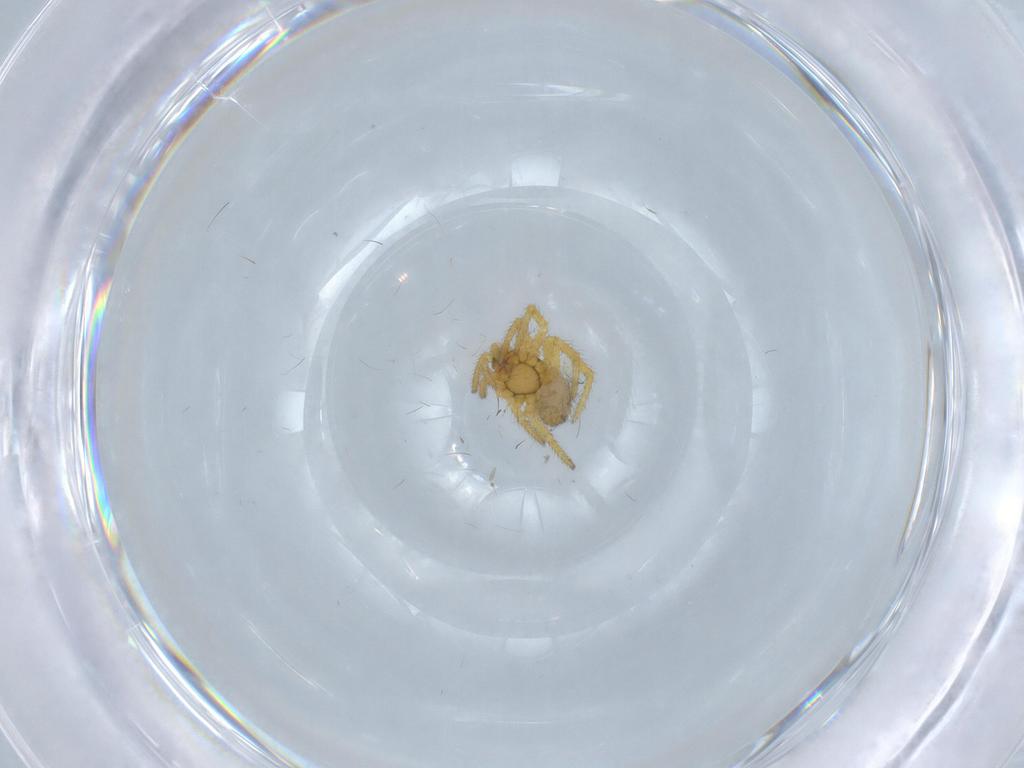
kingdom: Animalia
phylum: Arthropoda
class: Arachnida
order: Araneae
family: Theridiidae
